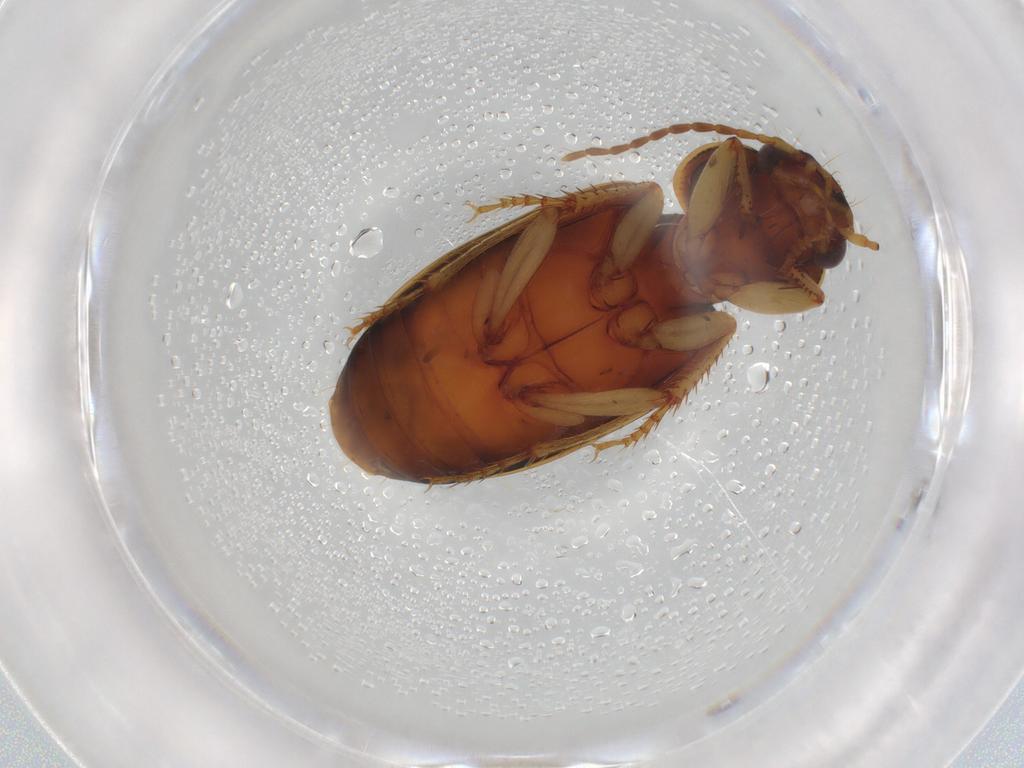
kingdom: Animalia
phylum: Arthropoda
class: Insecta
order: Coleoptera
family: Carabidae
